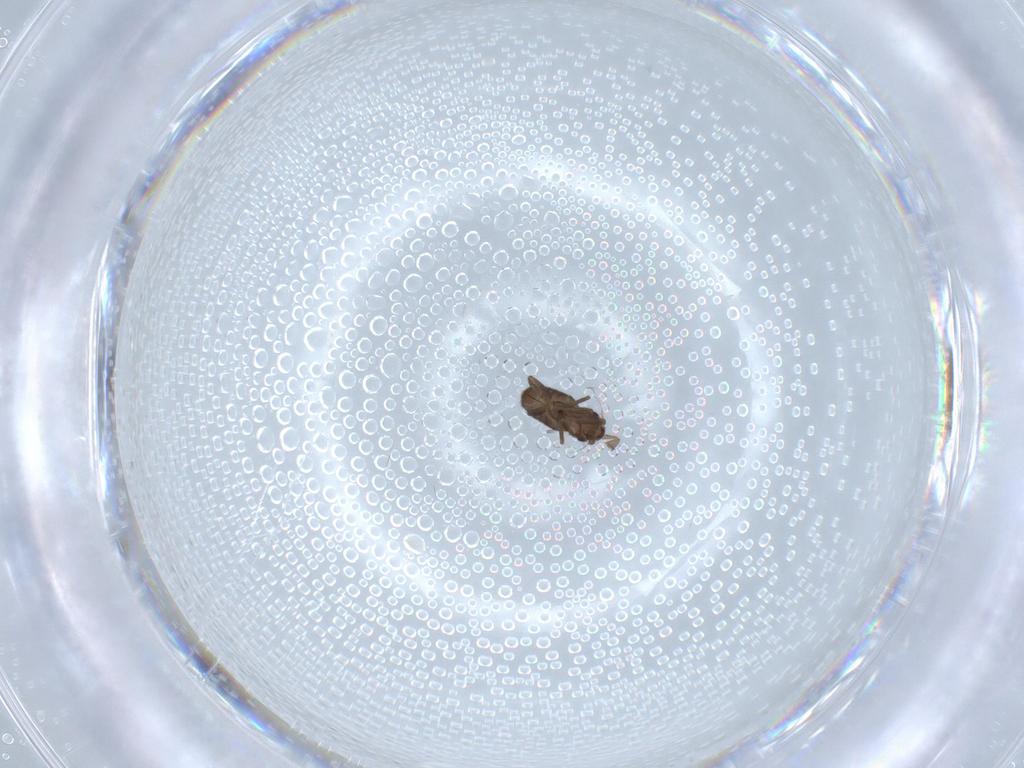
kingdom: Animalia
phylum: Arthropoda
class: Insecta
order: Diptera
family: Limoniidae
